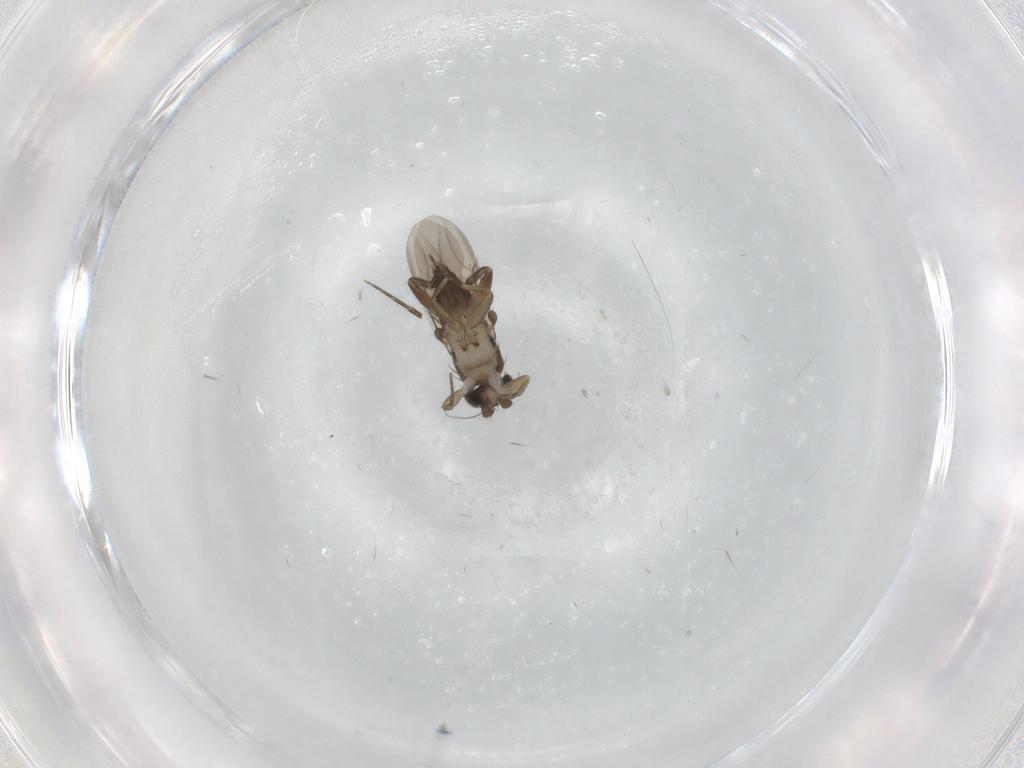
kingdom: Animalia
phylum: Arthropoda
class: Insecta
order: Diptera
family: Phoridae
